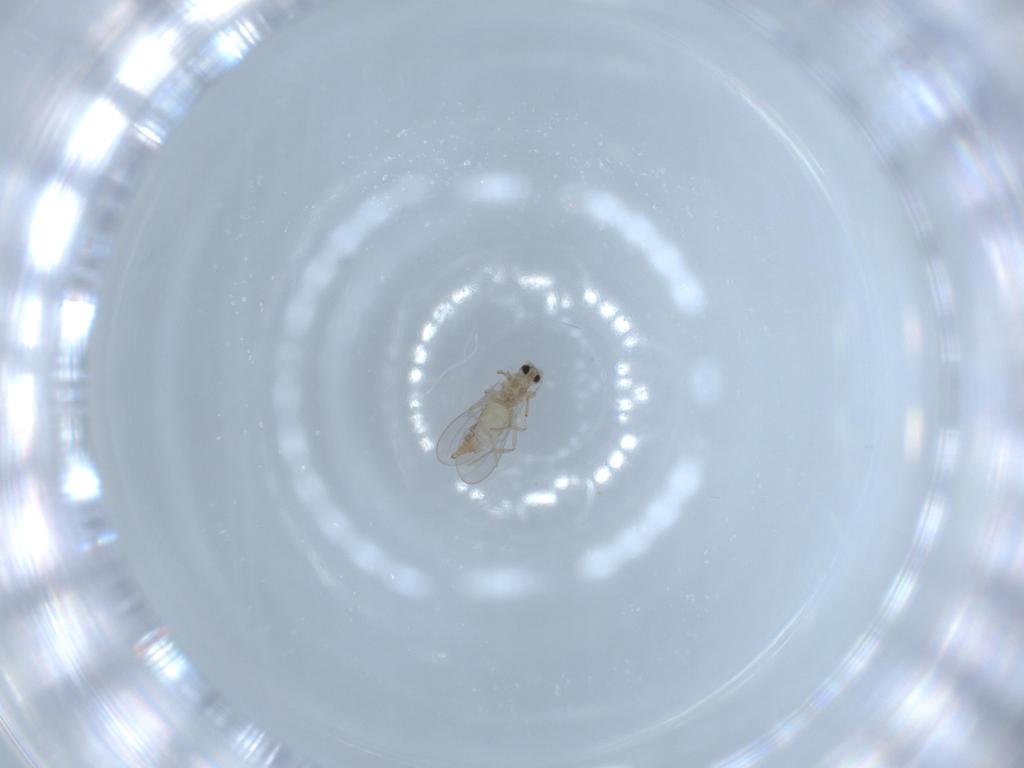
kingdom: Animalia
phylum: Arthropoda
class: Insecta
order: Diptera
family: Cecidomyiidae
